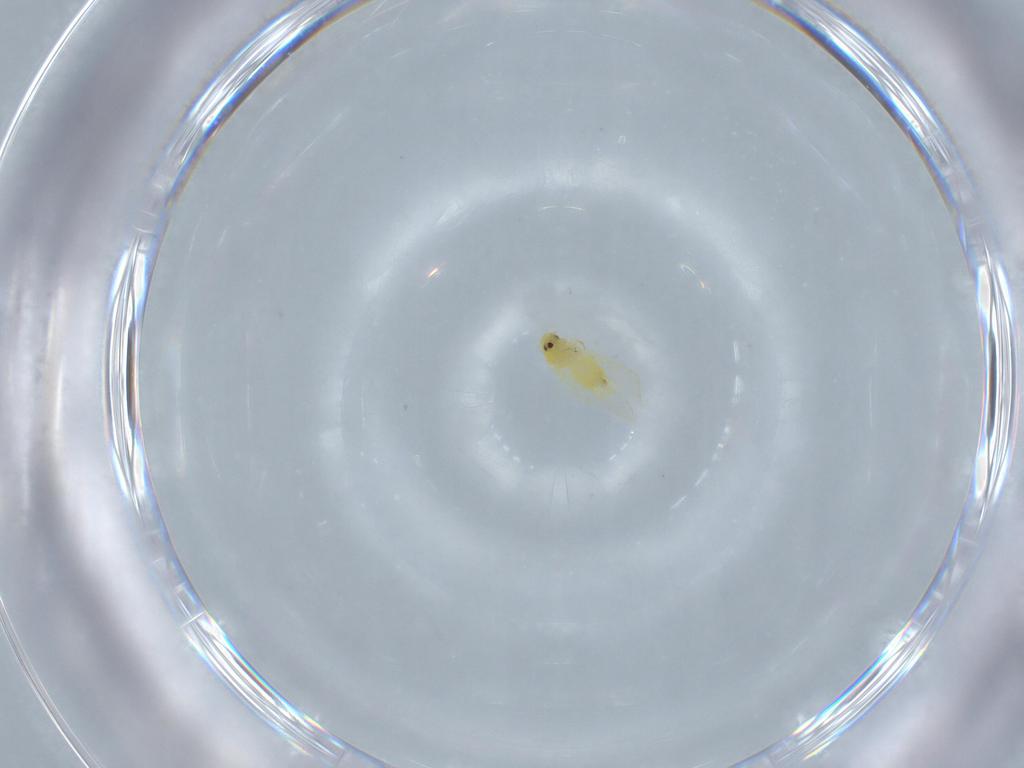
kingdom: Animalia
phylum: Arthropoda
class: Insecta
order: Hemiptera
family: Aleyrodidae
